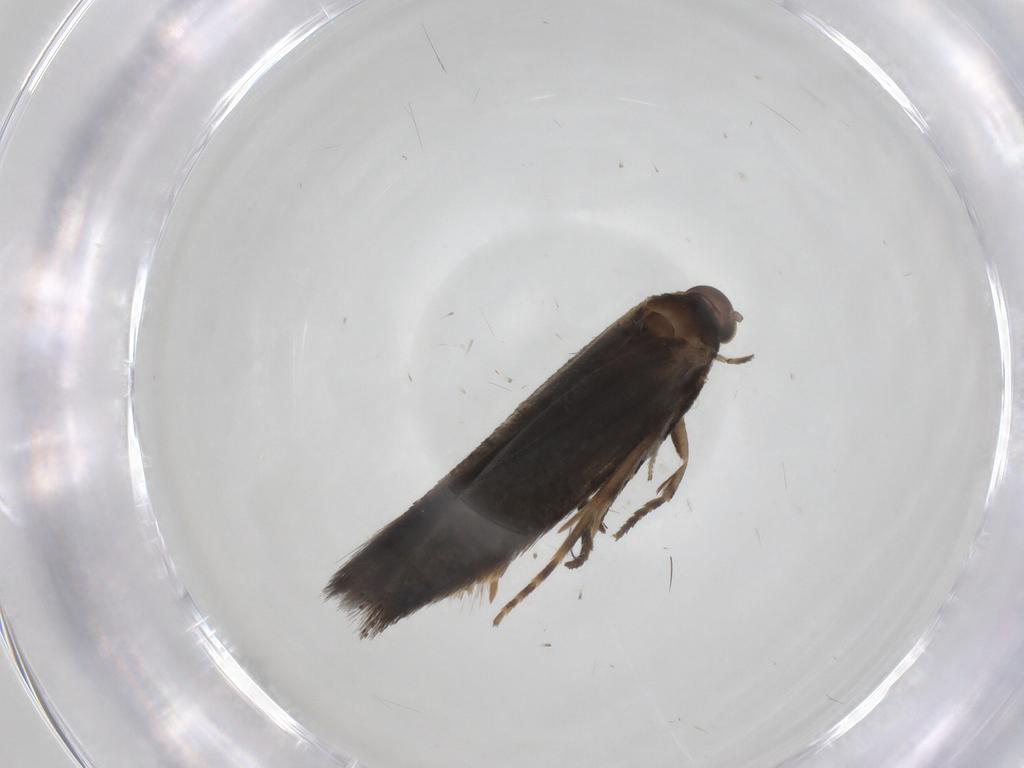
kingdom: Animalia
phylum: Arthropoda
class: Insecta
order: Lepidoptera
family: Elachistidae
